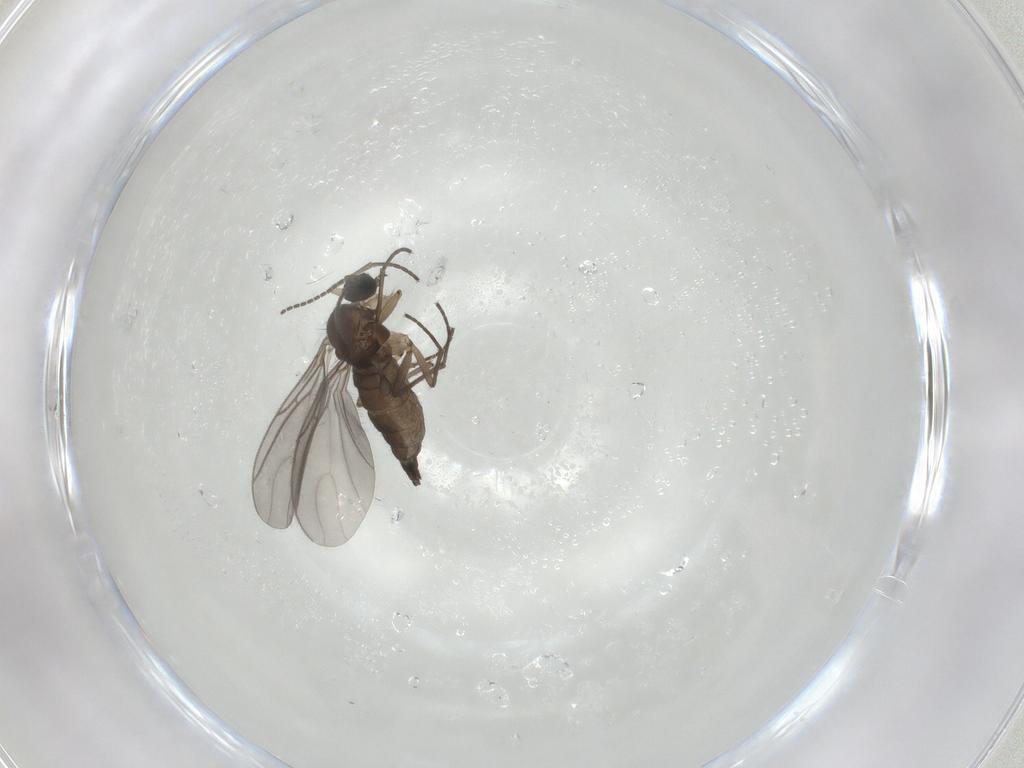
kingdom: Animalia
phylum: Arthropoda
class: Insecta
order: Diptera
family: Sciaridae
